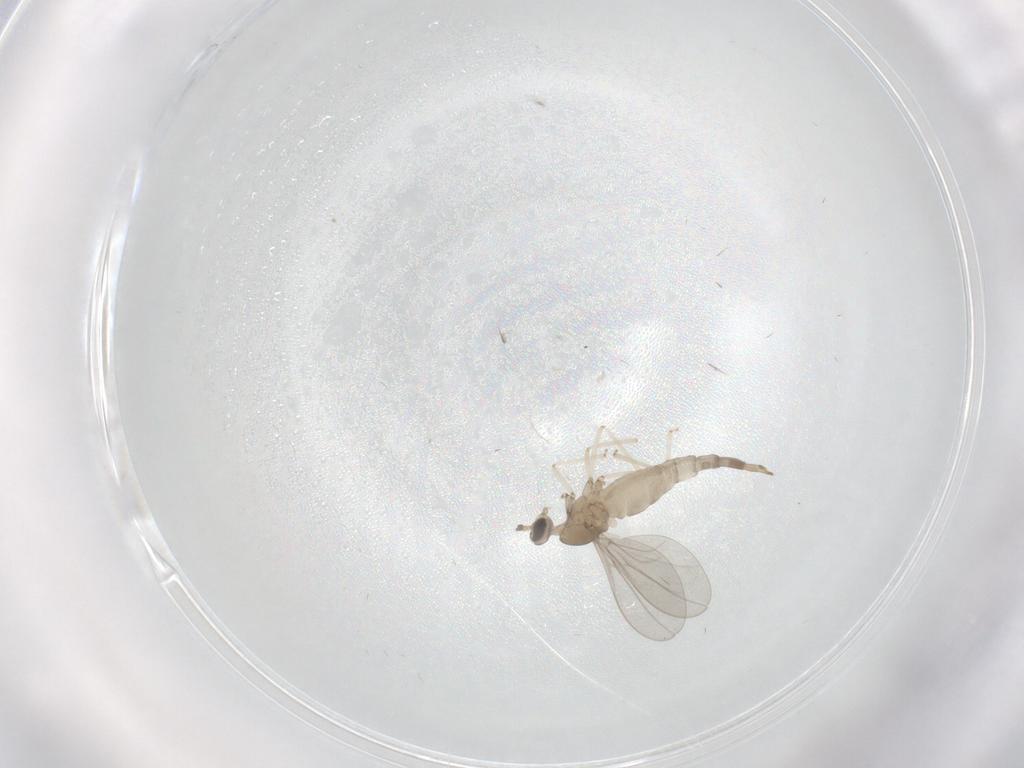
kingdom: Animalia
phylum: Arthropoda
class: Insecta
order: Diptera
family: Cecidomyiidae
